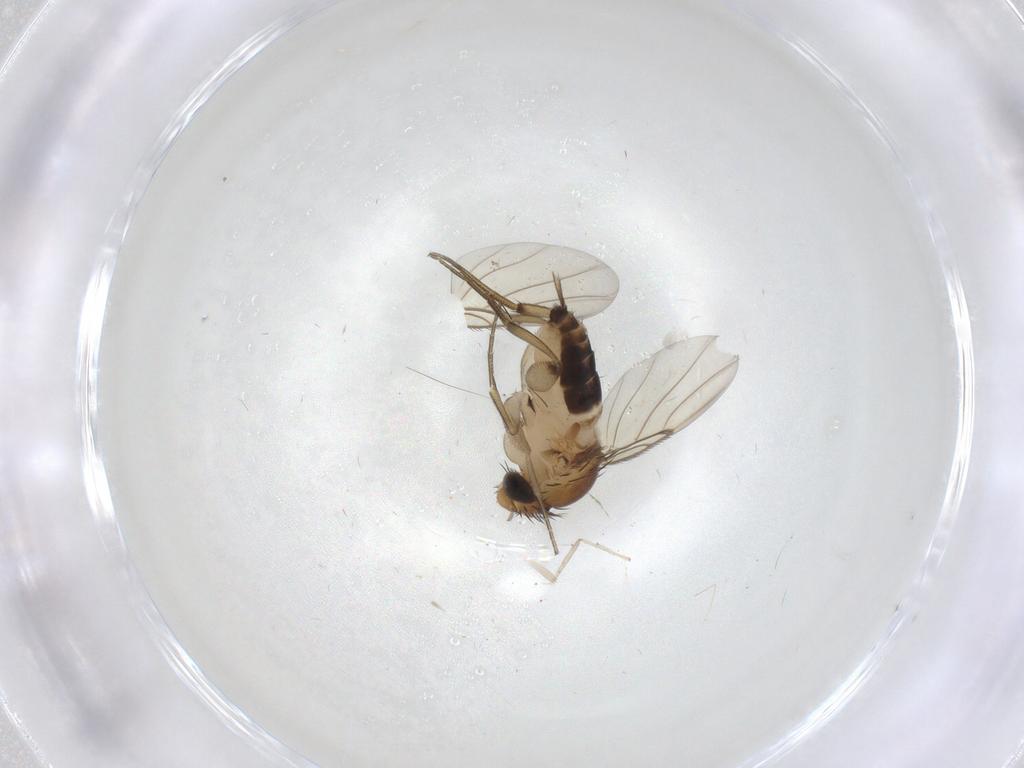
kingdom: Animalia
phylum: Arthropoda
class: Insecta
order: Diptera
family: Chironomidae
